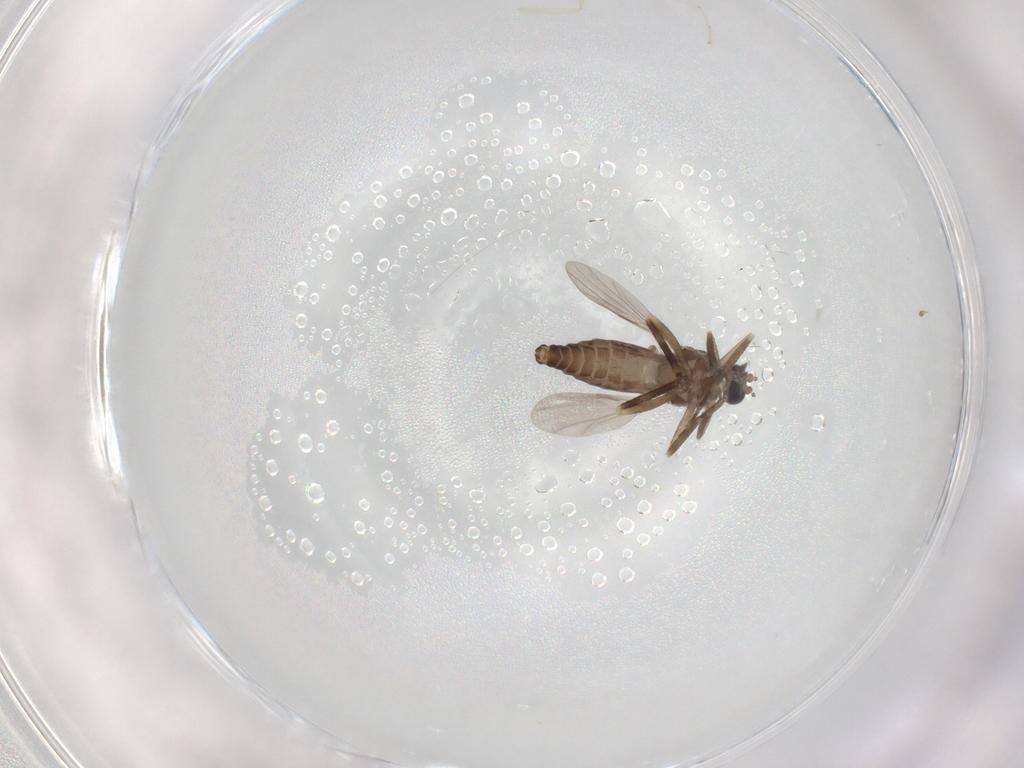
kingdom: Animalia
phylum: Arthropoda
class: Insecta
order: Diptera
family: Ceratopogonidae
